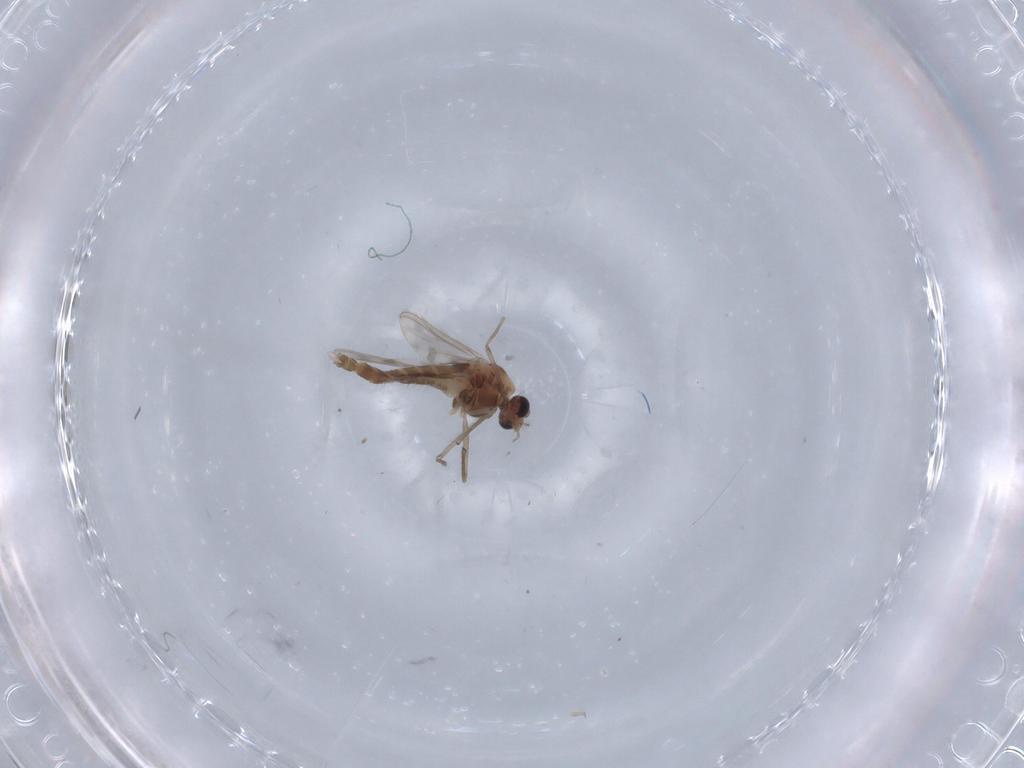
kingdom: Animalia
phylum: Arthropoda
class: Insecta
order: Diptera
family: Chironomidae
